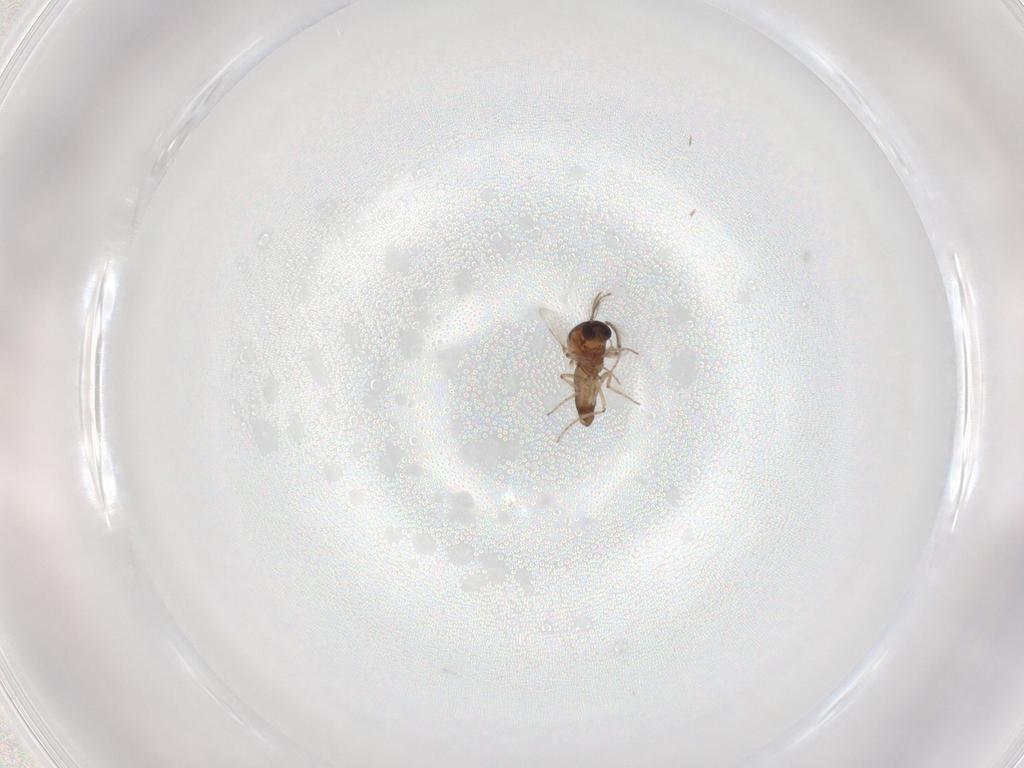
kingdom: Animalia
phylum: Arthropoda
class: Insecta
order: Diptera
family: Ceratopogonidae
